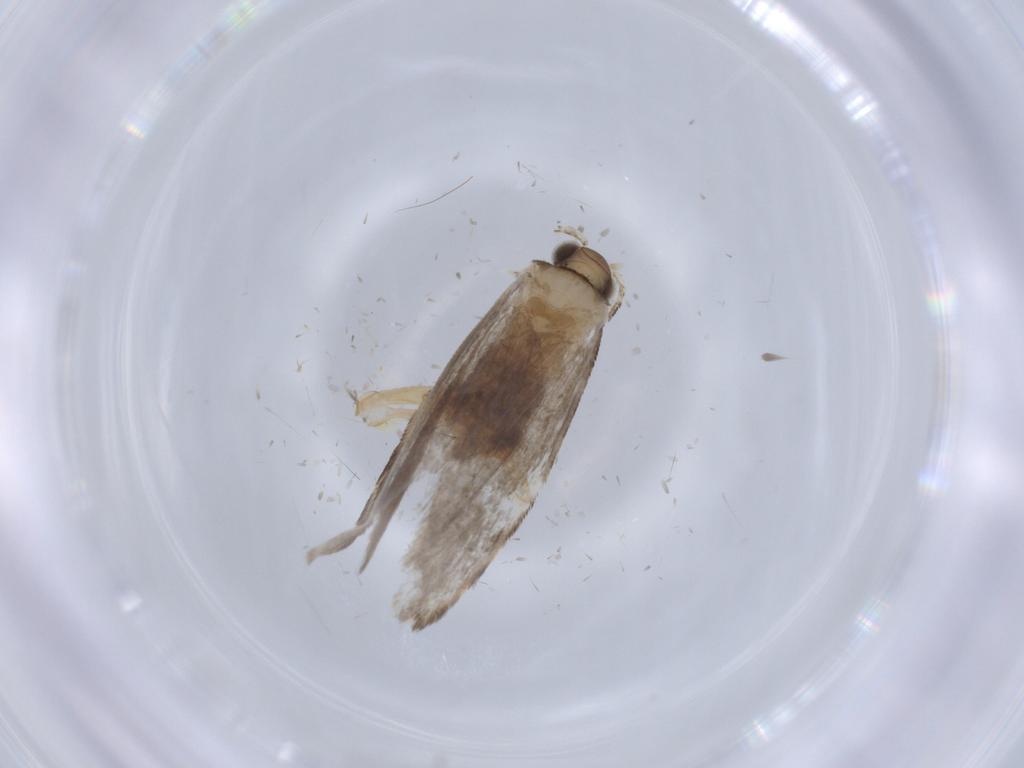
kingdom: Animalia
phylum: Arthropoda
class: Insecta
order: Lepidoptera
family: Tineidae
